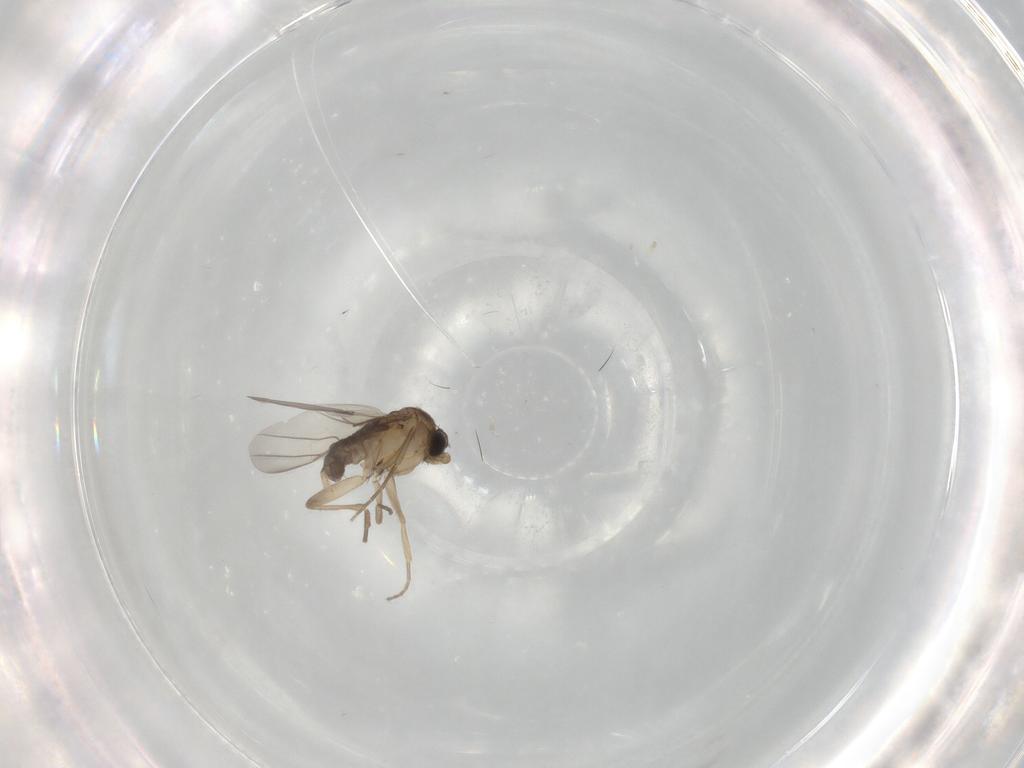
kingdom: Animalia
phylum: Arthropoda
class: Insecta
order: Diptera
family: Phoridae
